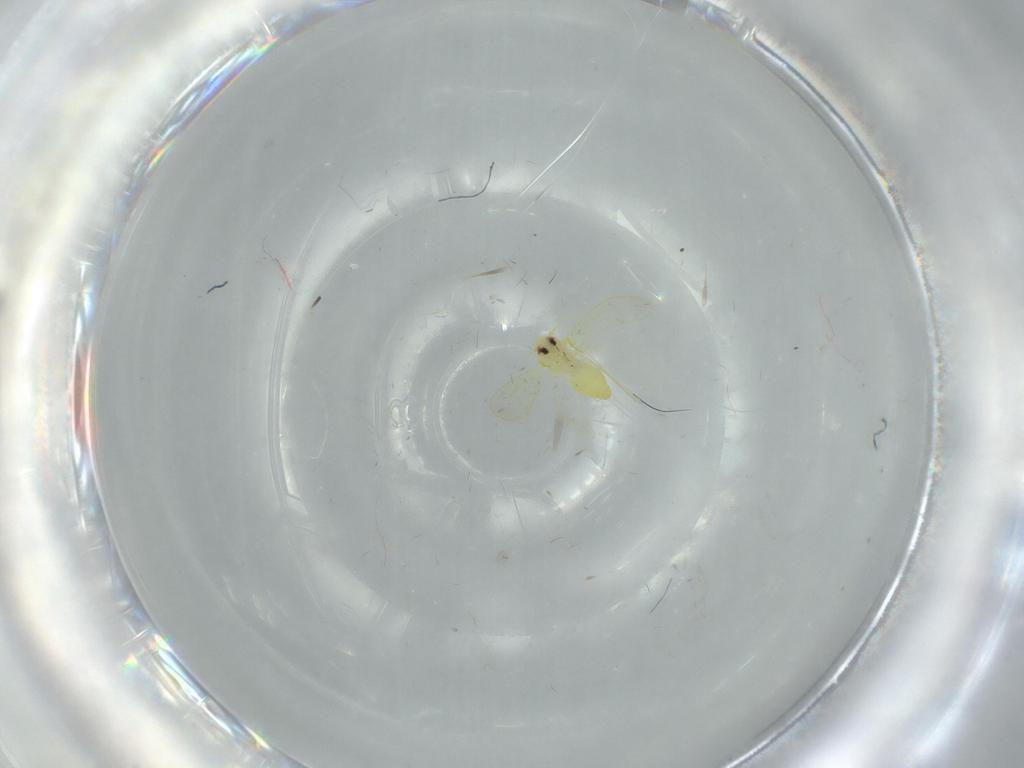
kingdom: Animalia
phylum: Arthropoda
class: Insecta
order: Hemiptera
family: Aleyrodidae
